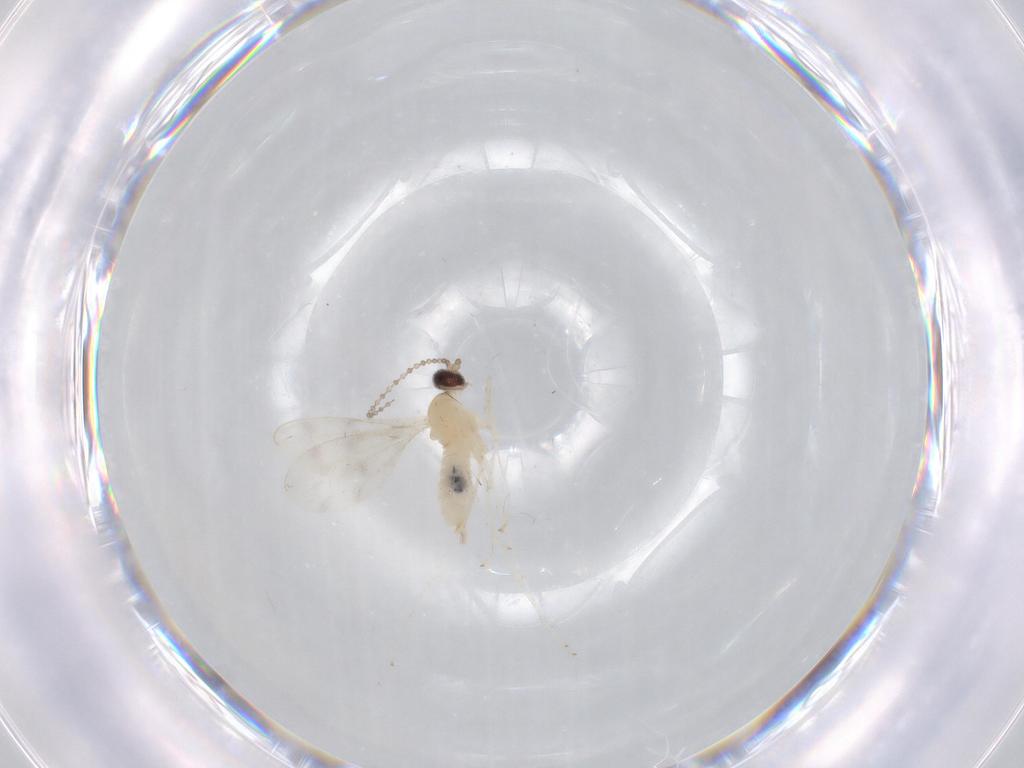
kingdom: Animalia
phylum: Arthropoda
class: Insecta
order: Diptera
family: Cecidomyiidae
